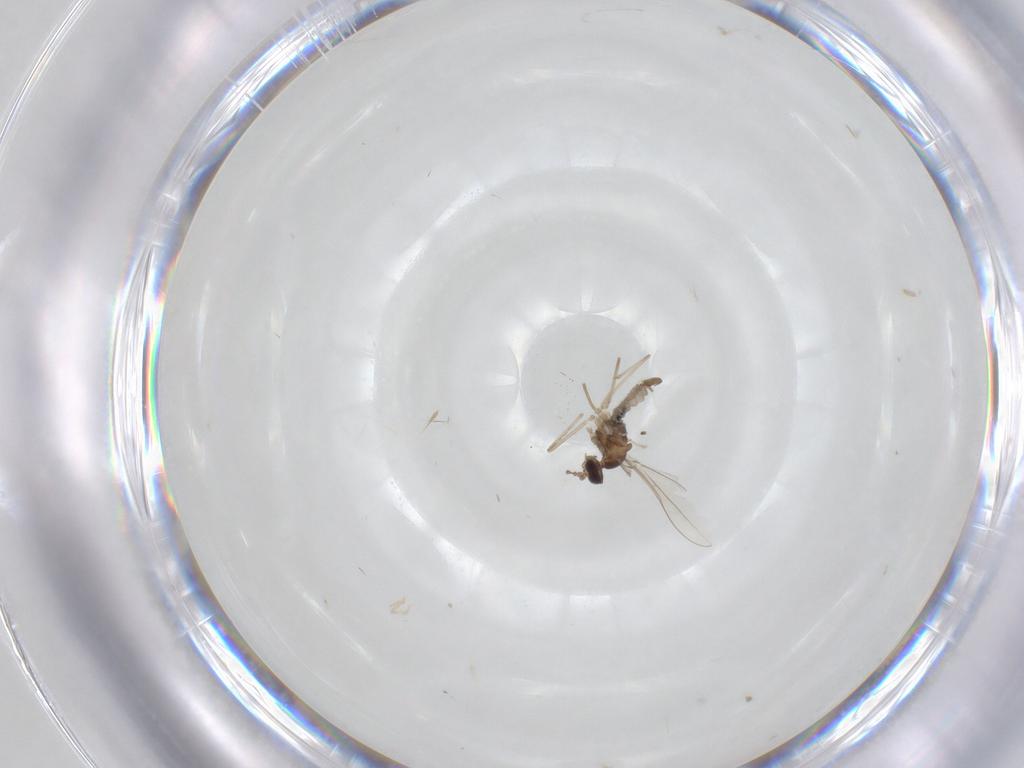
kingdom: Animalia
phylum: Arthropoda
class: Insecta
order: Diptera
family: Cecidomyiidae
